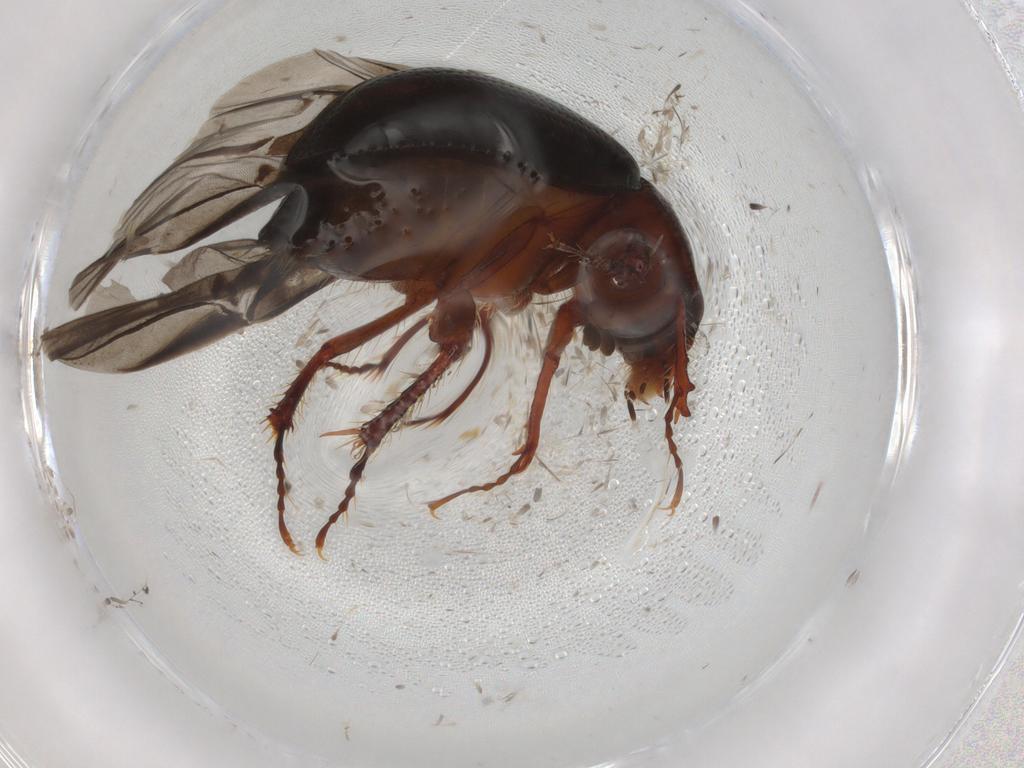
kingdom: Animalia
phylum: Arthropoda
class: Insecta
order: Coleoptera
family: Hybosoridae
